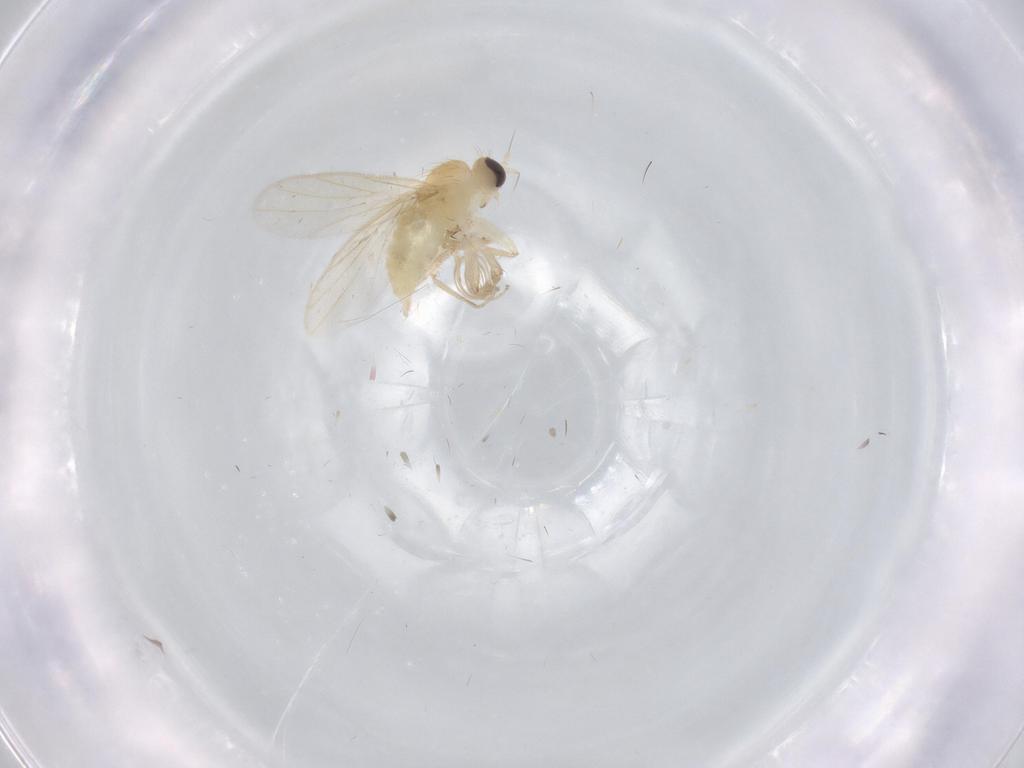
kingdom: Animalia
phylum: Arthropoda
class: Insecta
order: Diptera
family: Hybotidae
